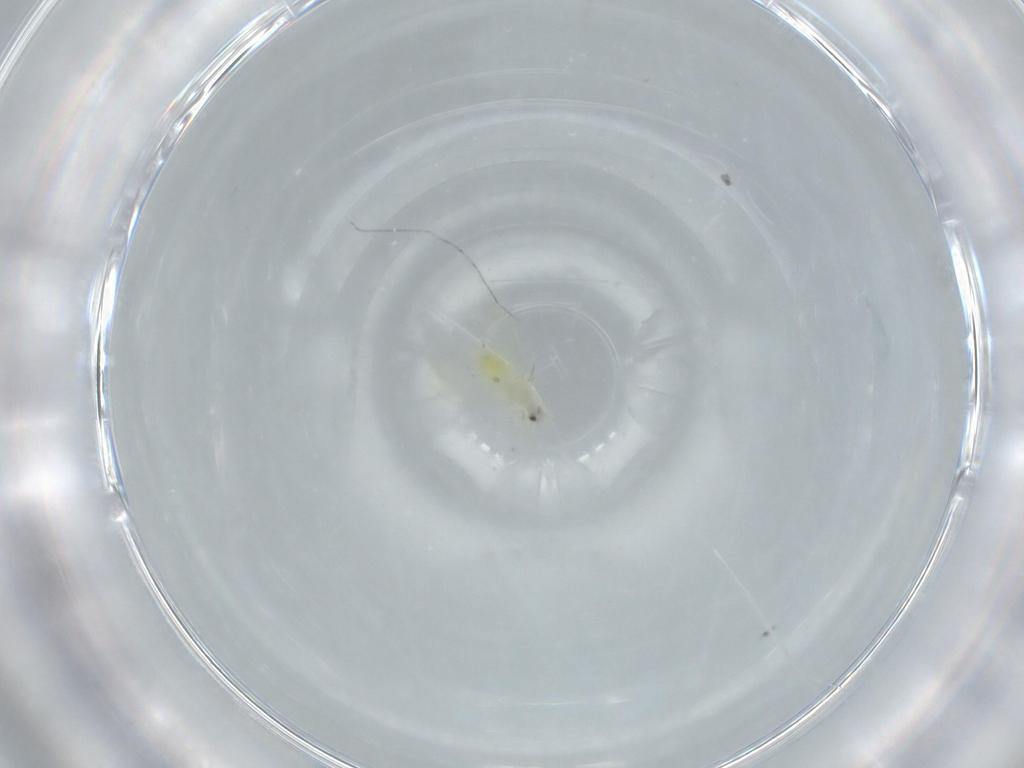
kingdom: Animalia
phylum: Arthropoda
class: Insecta
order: Hemiptera
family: Aleyrodidae
